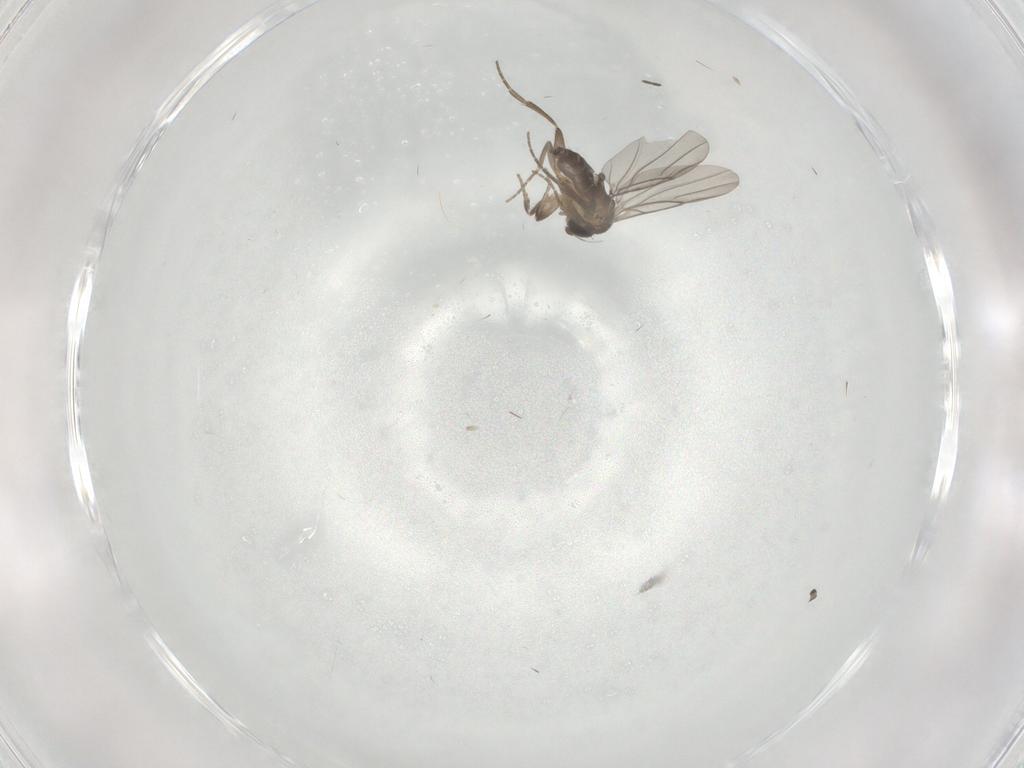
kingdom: Animalia
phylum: Arthropoda
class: Insecta
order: Diptera
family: Phoridae
